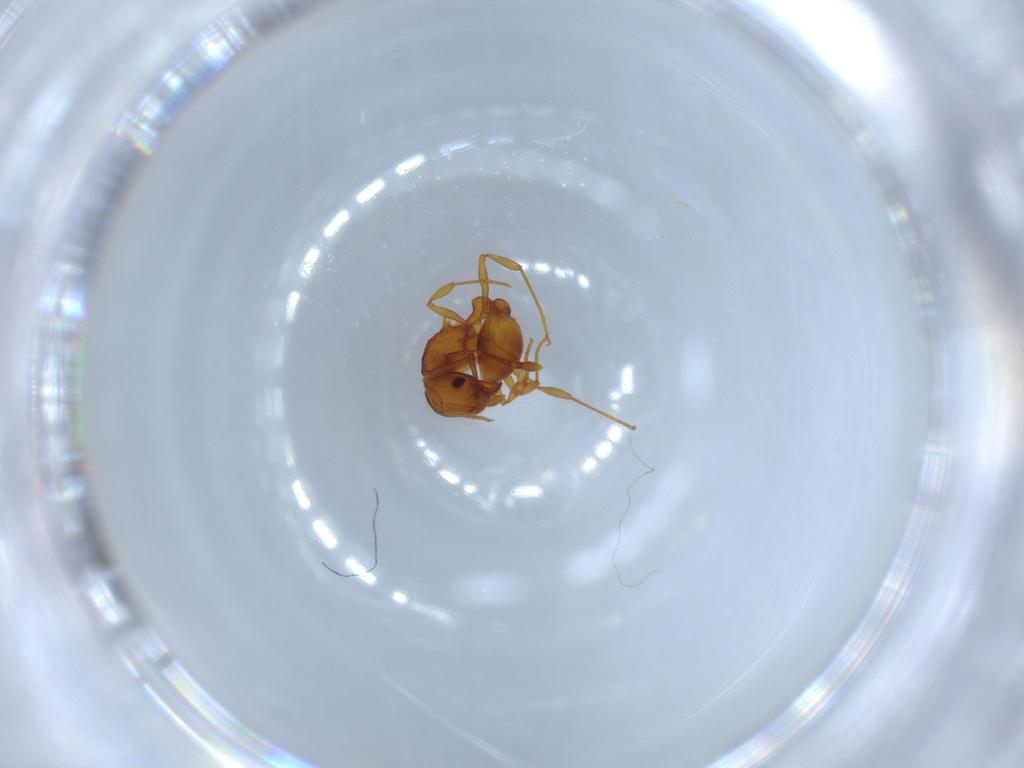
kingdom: Animalia
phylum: Arthropoda
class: Insecta
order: Hymenoptera
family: Formicidae
